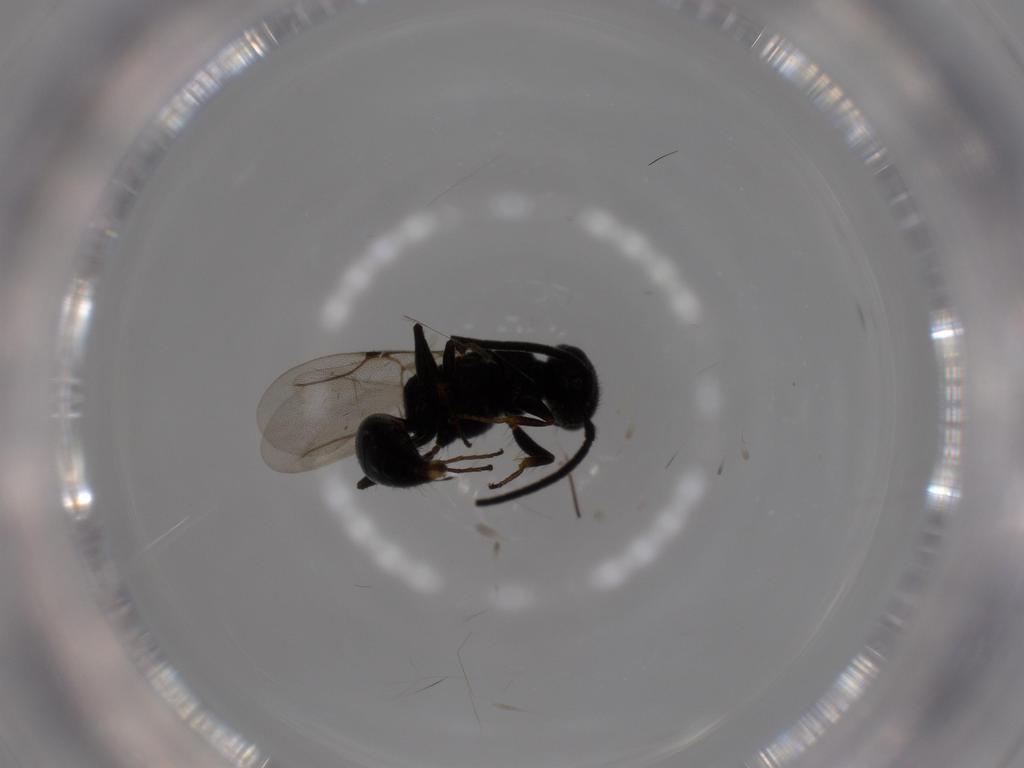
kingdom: Animalia
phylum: Arthropoda
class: Insecta
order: Hymenoptera
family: Bethylidae
